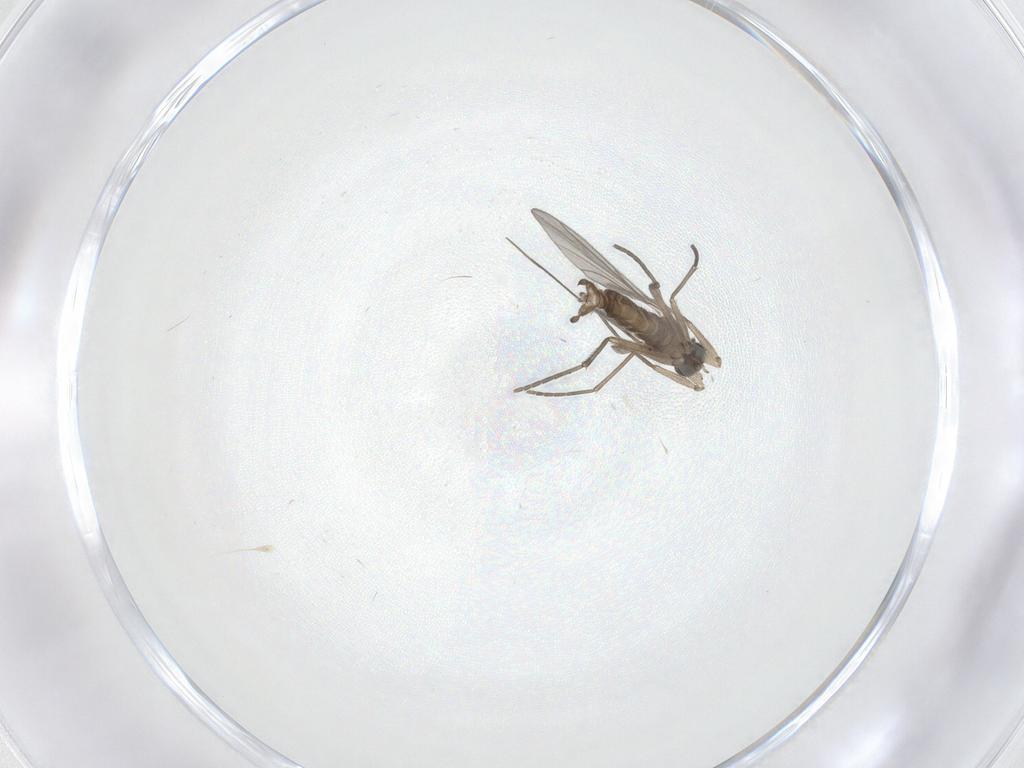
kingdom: Animalia
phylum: Arthropoda
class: Insecta
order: Diptera
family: Sciaridae
